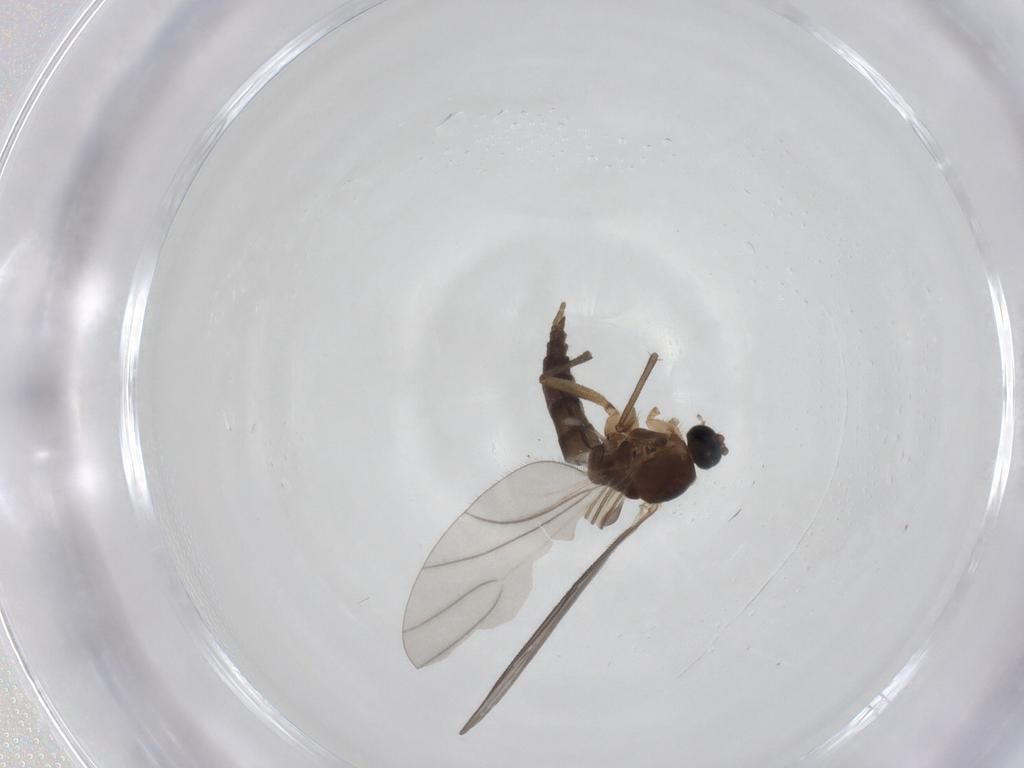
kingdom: Animalia
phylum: Arthropoda
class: Insecta
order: Diptera
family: Sciaridae
